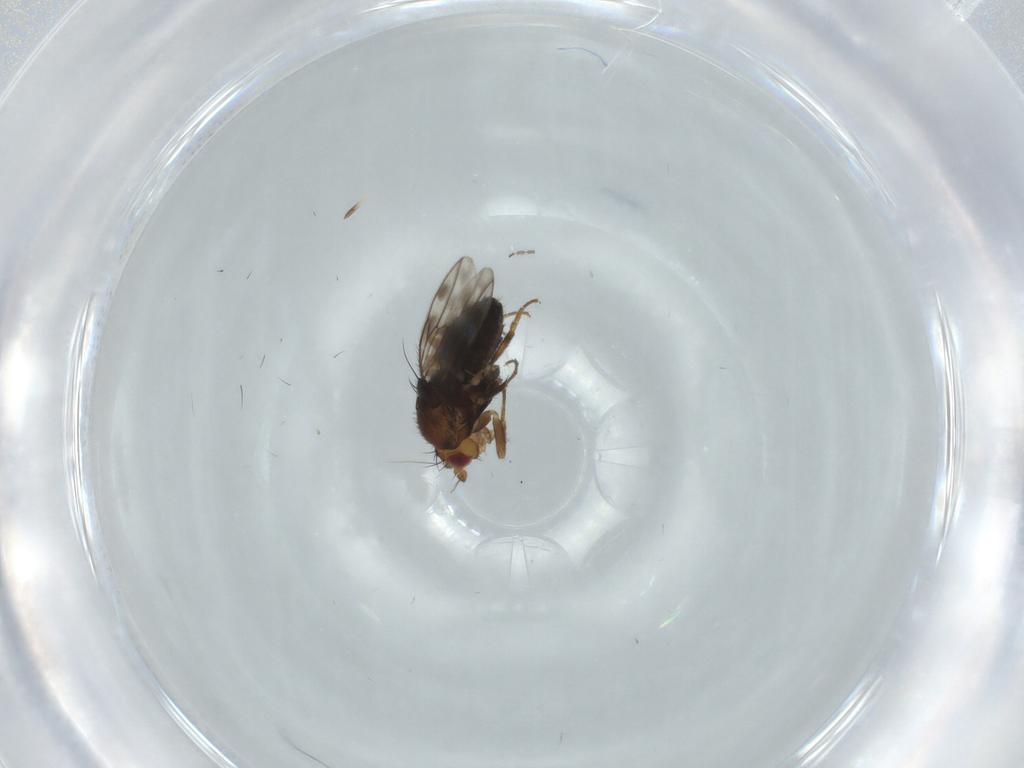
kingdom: Animalia
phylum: Arthropoda
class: Insecta
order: Diptera
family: Sphaeroceridae
